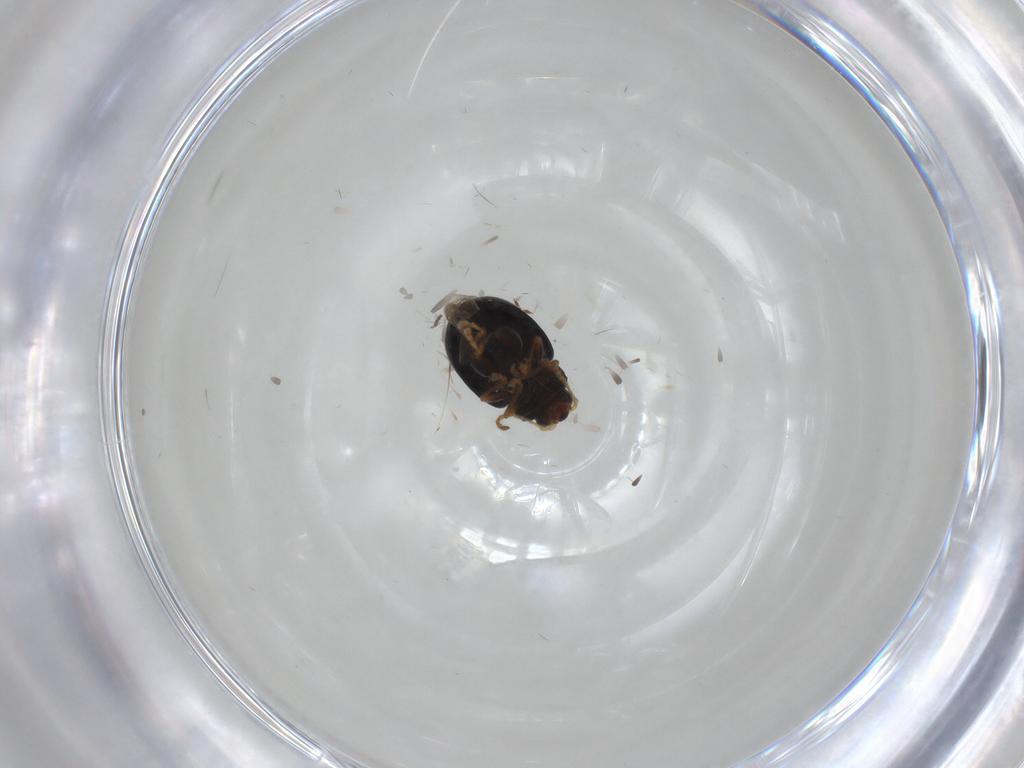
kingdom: Animalia
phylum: Arthropoda
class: Insecta
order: Coleoptera
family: Chrysomelidae
